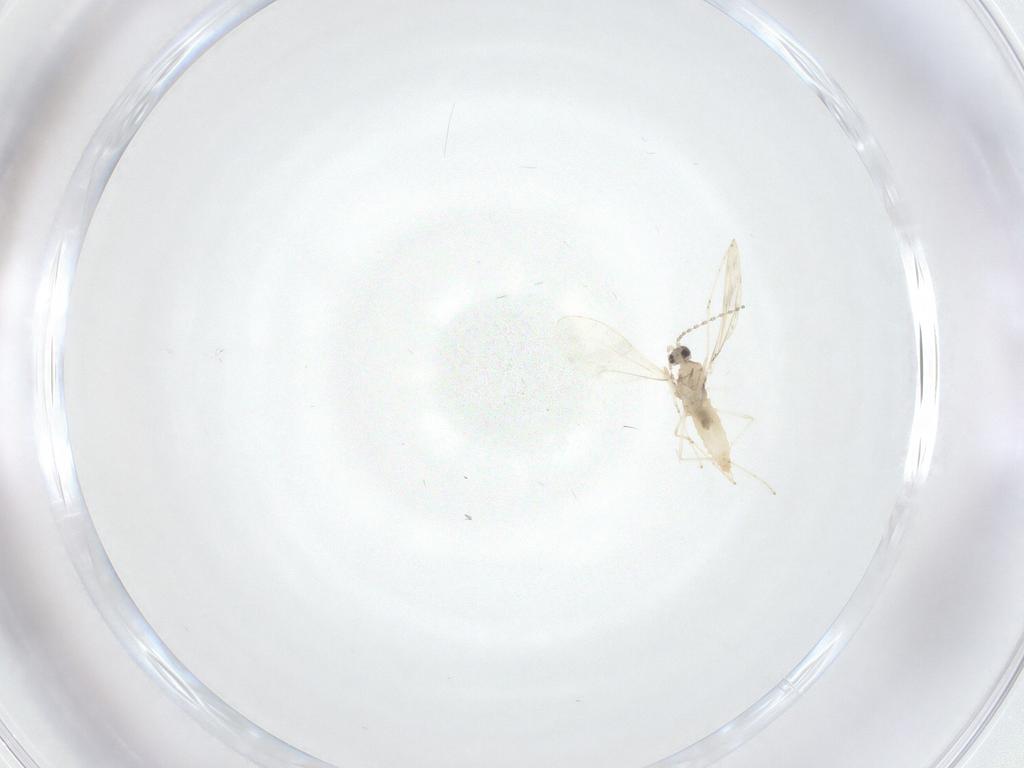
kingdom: Animalia
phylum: Arthropoda
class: Insecta
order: Diptera
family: Cecidomyiidae
